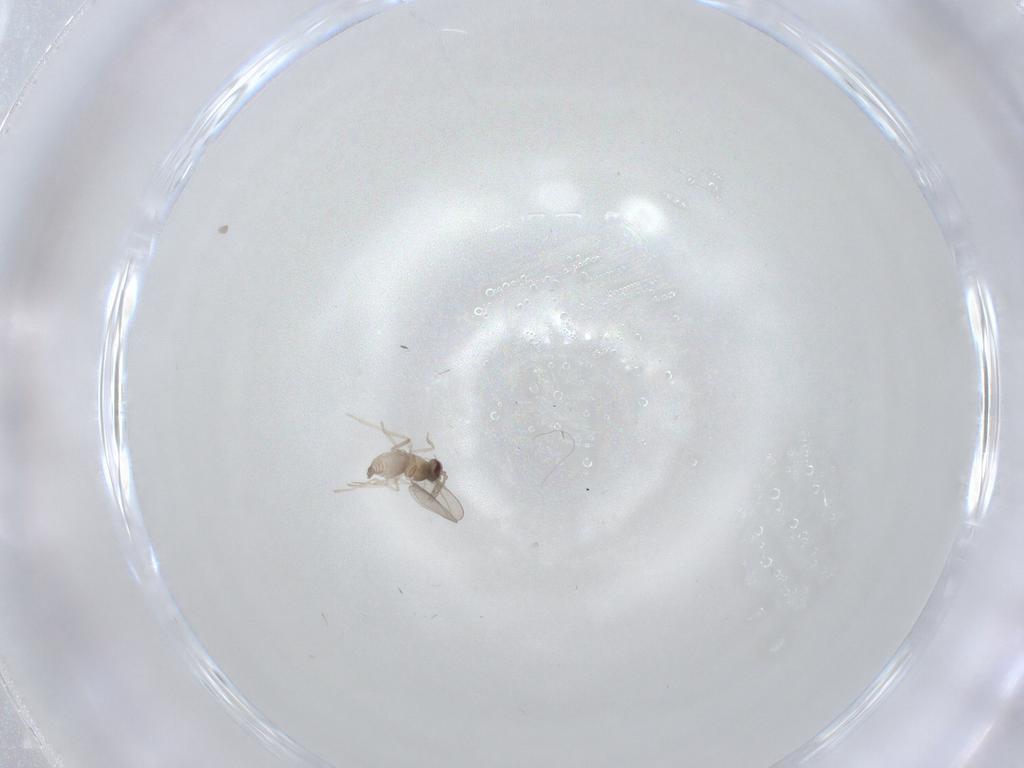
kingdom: Animalia
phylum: Arthropoda
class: Insecta
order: Diptera
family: Cecidomyiidae
